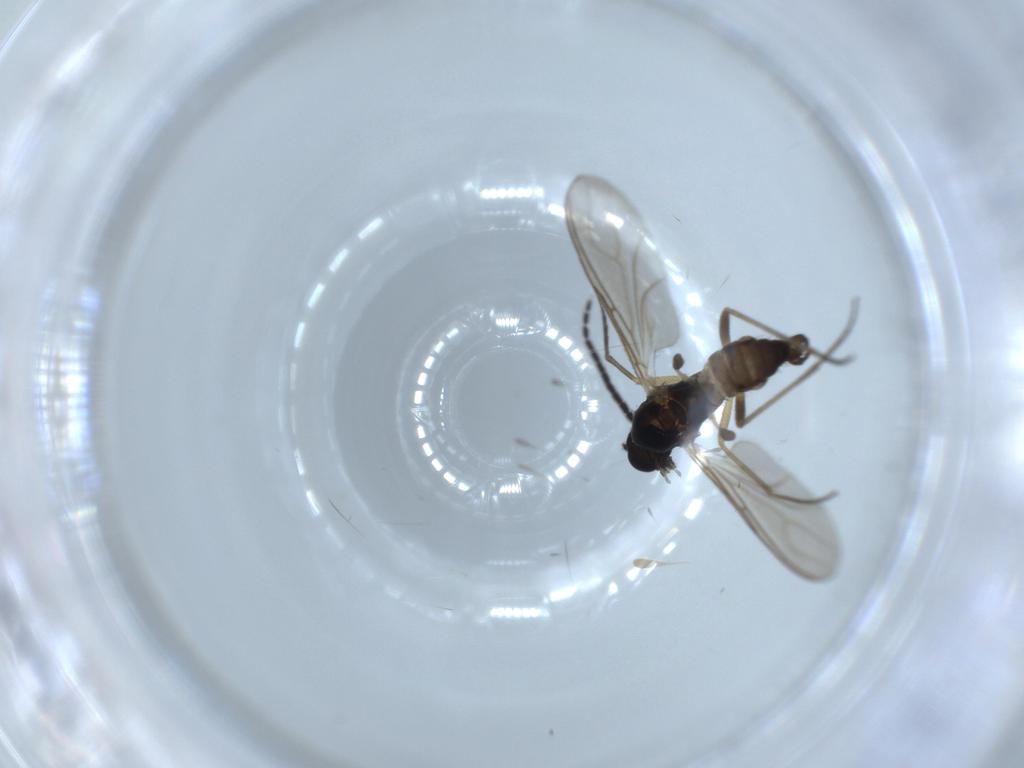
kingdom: Animalia
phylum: Arthropoda
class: Insecta
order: Diptera
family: Sciaridae
